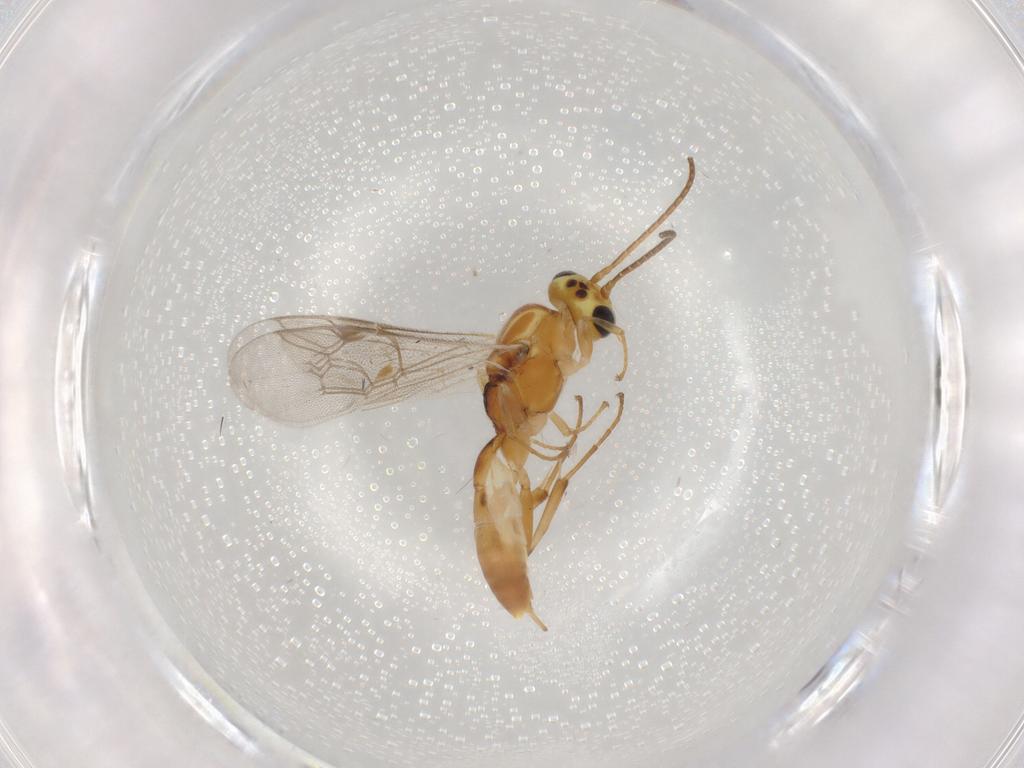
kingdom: Animalia
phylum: Arthropoda
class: Insecta
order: Hymenoptera
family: Ichneumonidae
